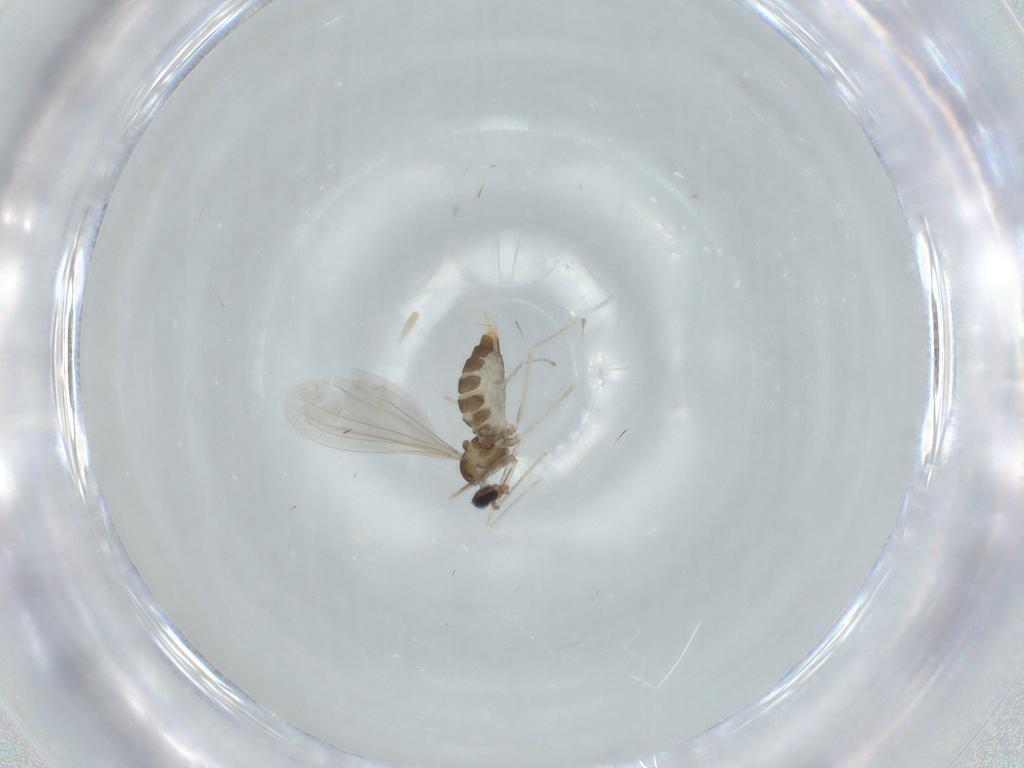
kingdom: Animalia
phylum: Arthropoda
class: Insecta
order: Diptera
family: Cecidomyiidae
